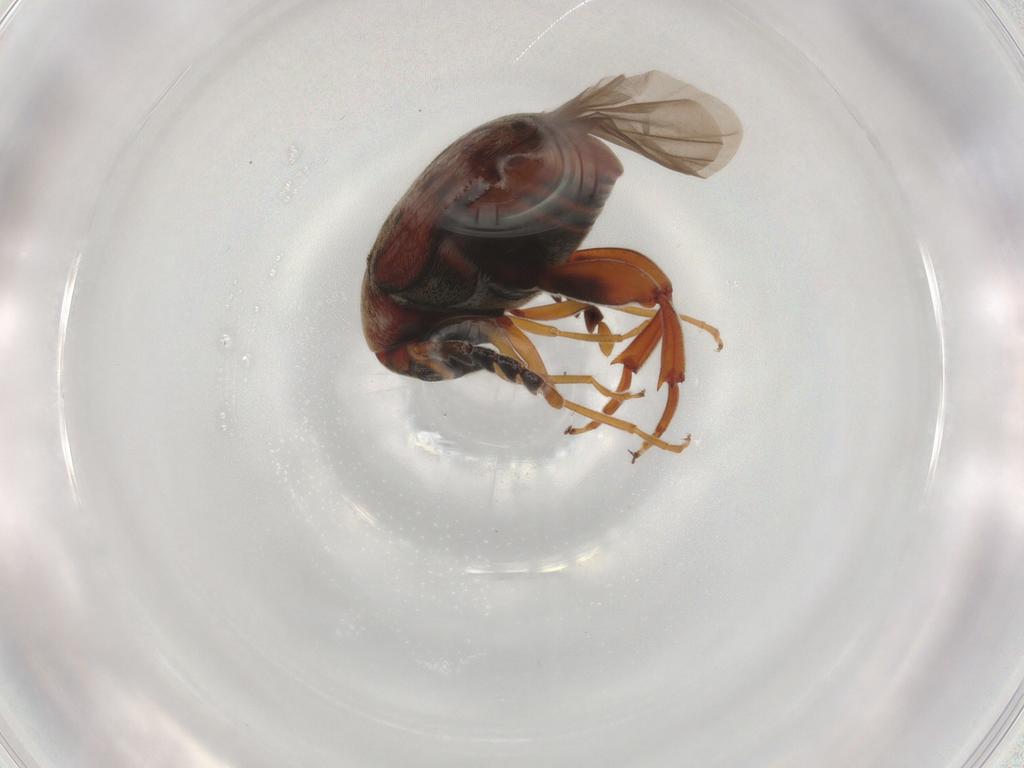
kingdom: Animalia
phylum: Arthropoda
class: Insecta
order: Coleoptera
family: Chrysomelidae
